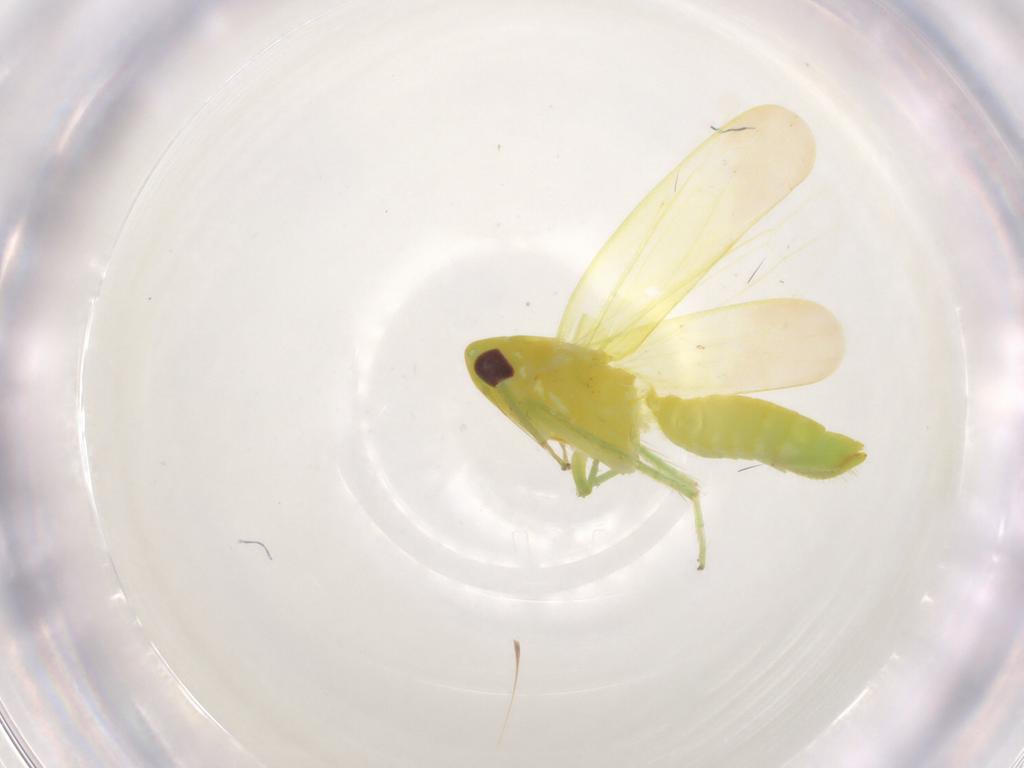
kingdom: Animalia
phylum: Arthropoda
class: Insecta
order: Hemiptera
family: Cicadellidae
